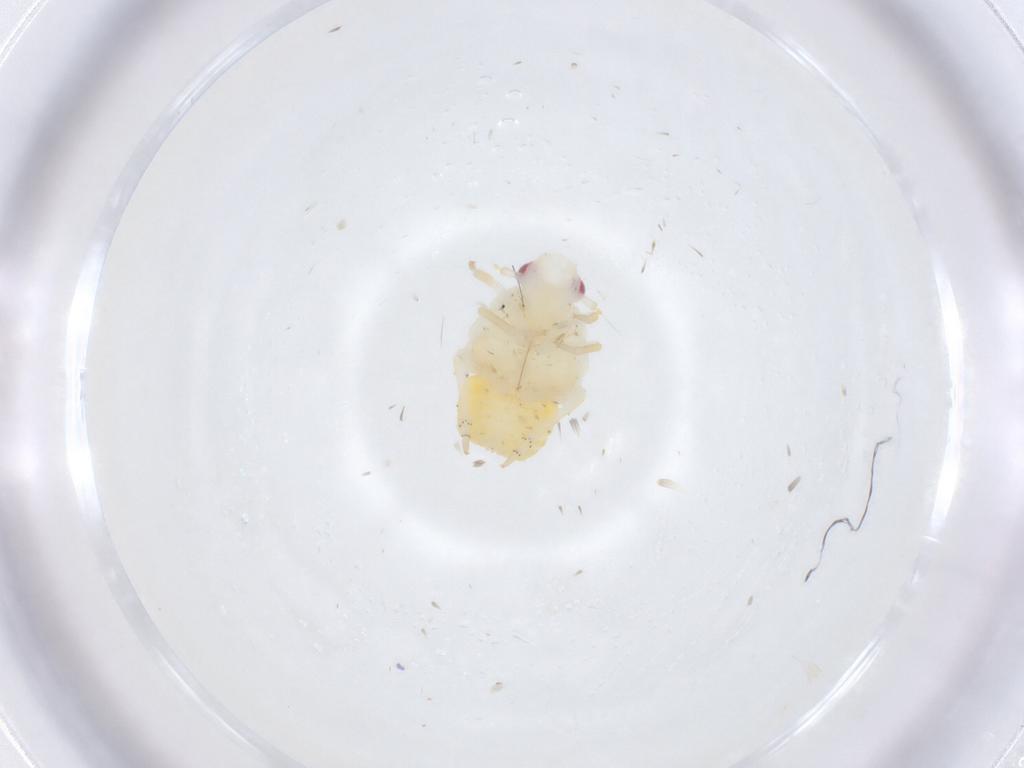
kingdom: Animalia
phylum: Arthropoda
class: Insecta
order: Hemiptera
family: Fulgoroidea_incertae_sedis
